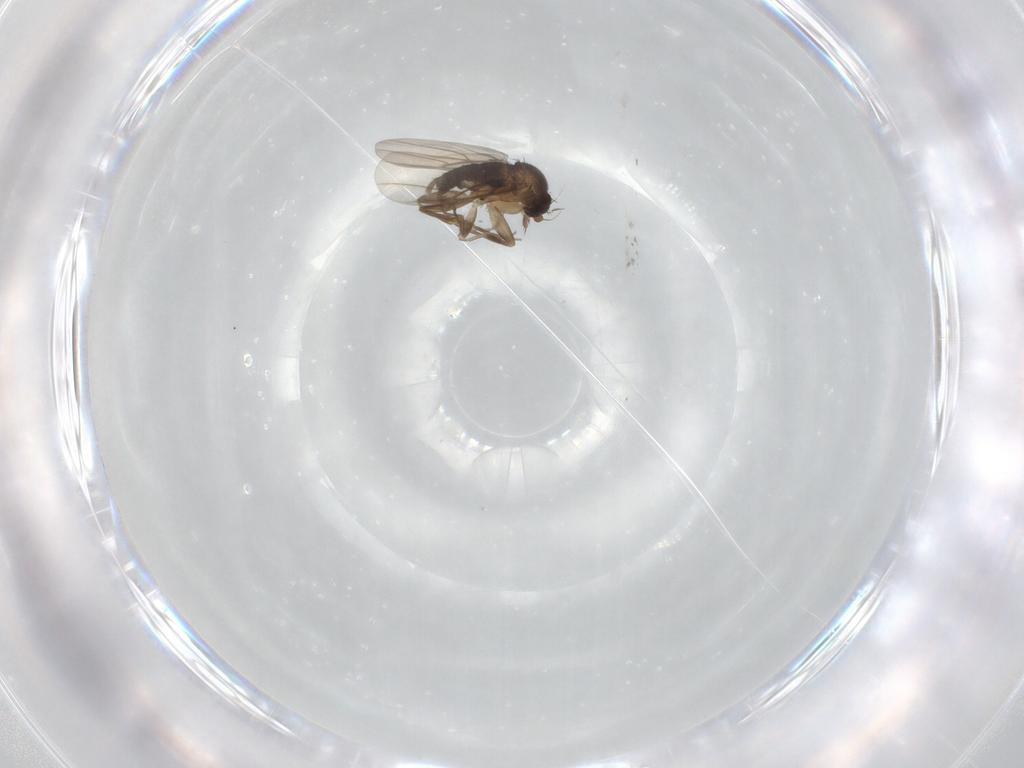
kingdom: Animalia
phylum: Arthropoda
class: Insecta
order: Diptera
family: Phoridae
